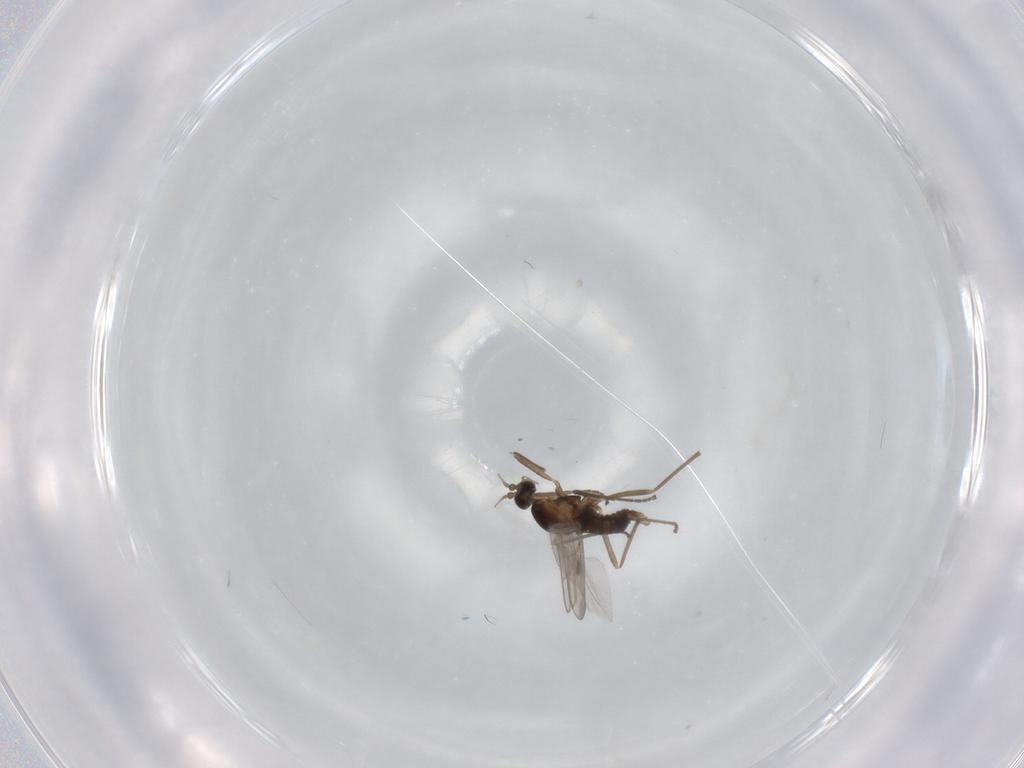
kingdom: Animalia
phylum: Arthropoda
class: Insecta
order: Diptera
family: Cecidomyiidae
